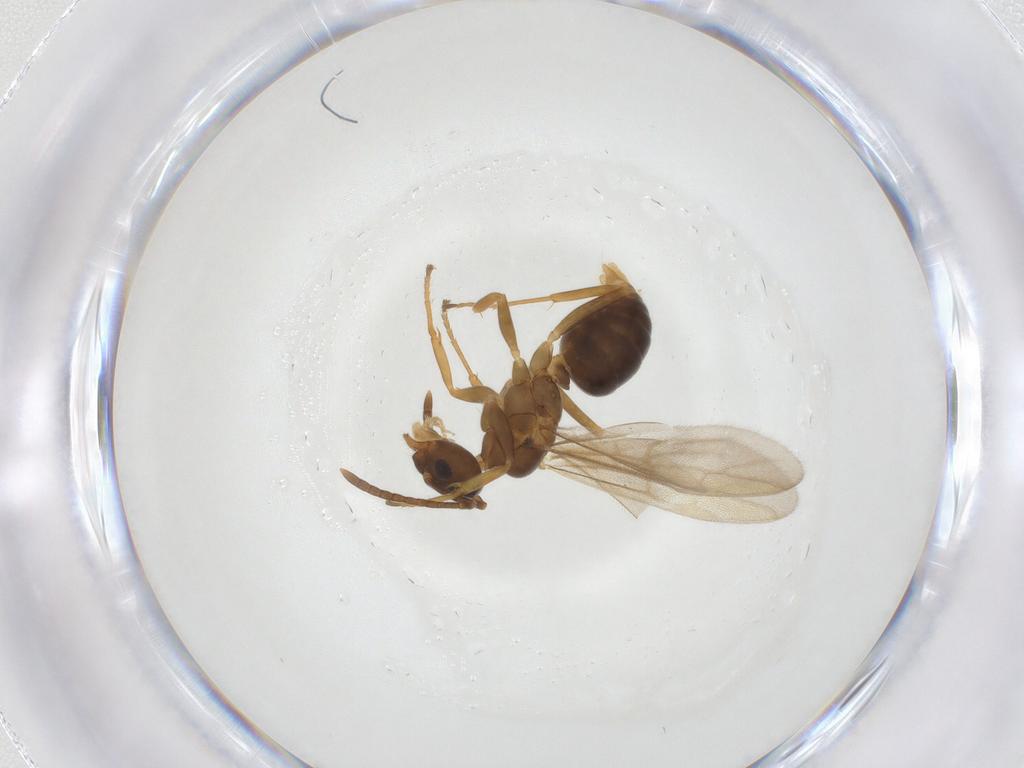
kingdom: Animalia
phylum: Arthropoda
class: Insecta
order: Hymenoptera
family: Formicidae
